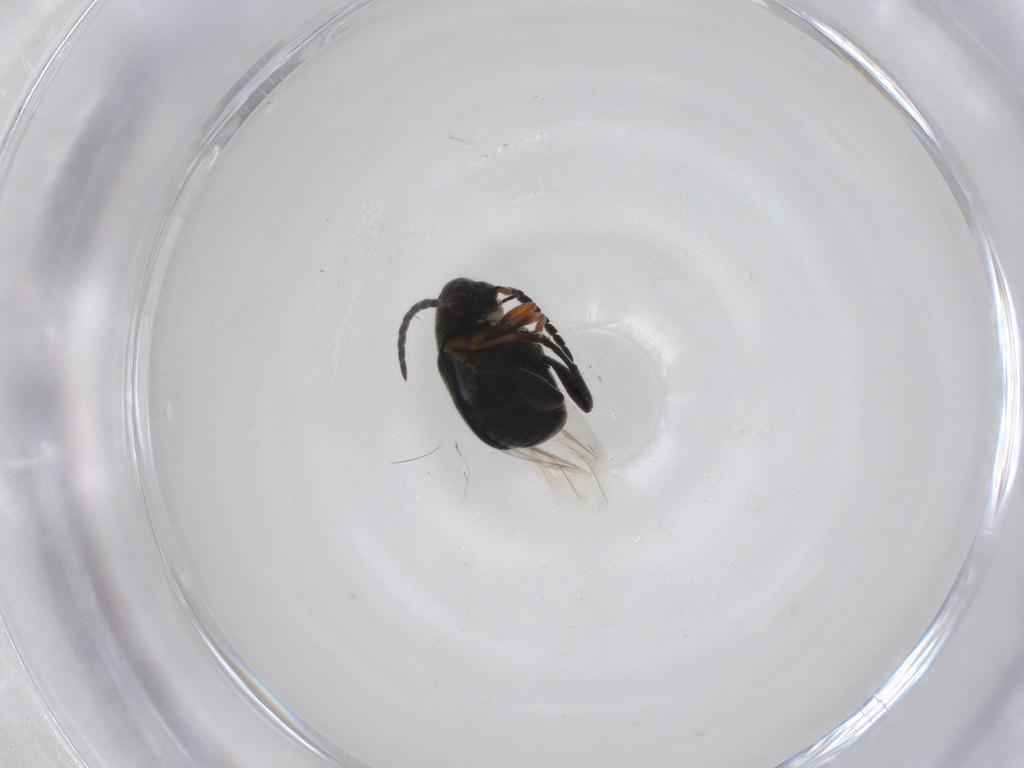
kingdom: Animalia
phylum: Arthropoda
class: Insecta
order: Coleoptera
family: Chrysomelidae
